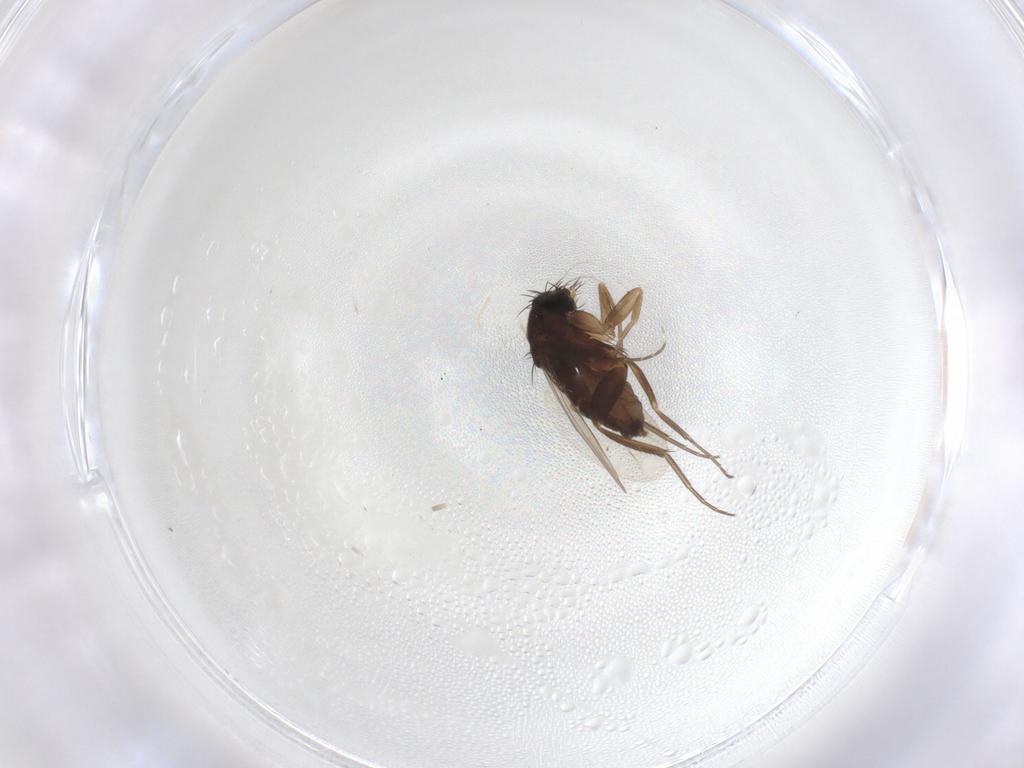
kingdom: Animalia
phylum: Arthropoda
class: Insecta
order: Diptera
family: Phoridae
